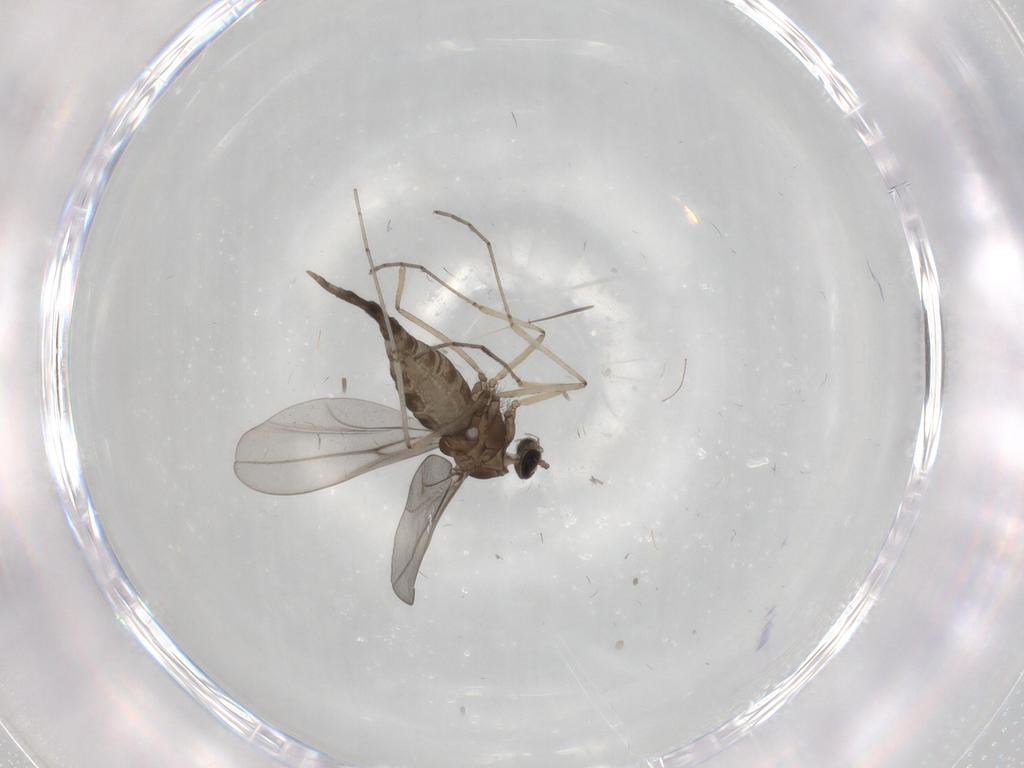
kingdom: Animalia
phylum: Arthropoda
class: Insecta
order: Diptera
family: Cecidomyiidae
